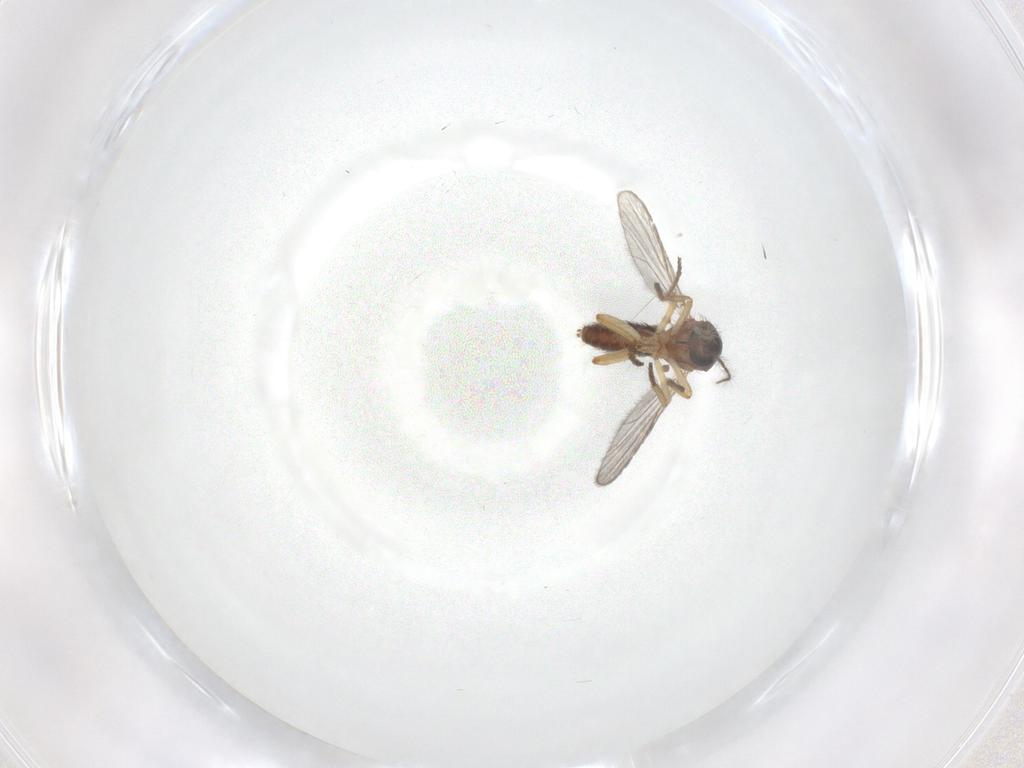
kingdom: Animalia
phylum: Arthropoda
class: Insecta
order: Diptera
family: Ceratopogonidae
